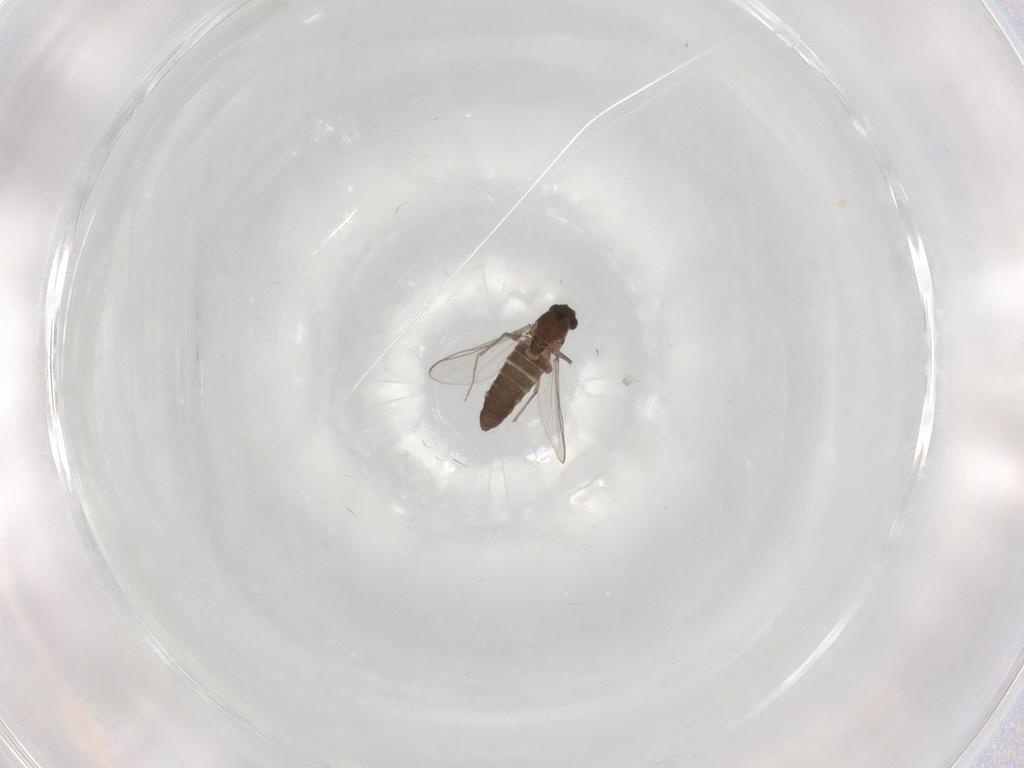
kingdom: Animalia
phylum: Arthropoda
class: Insecta
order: Diptera
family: Chironomidae
